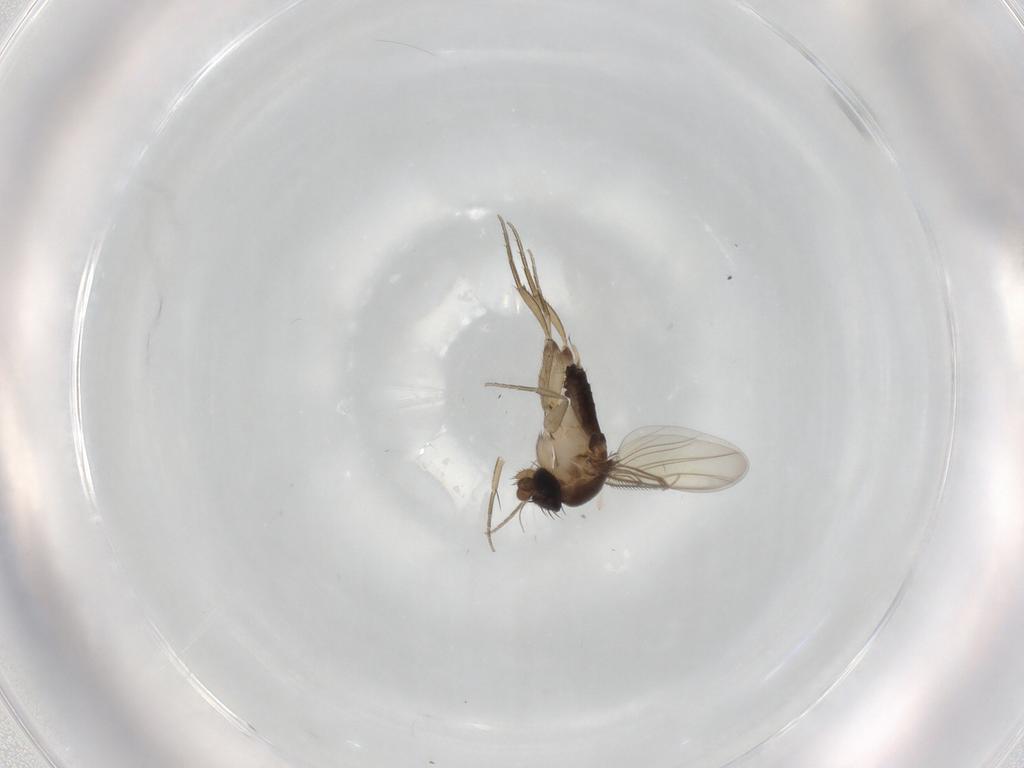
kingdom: Animalia
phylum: Arthropoda
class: Insecta
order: Diptera
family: Phoridae
